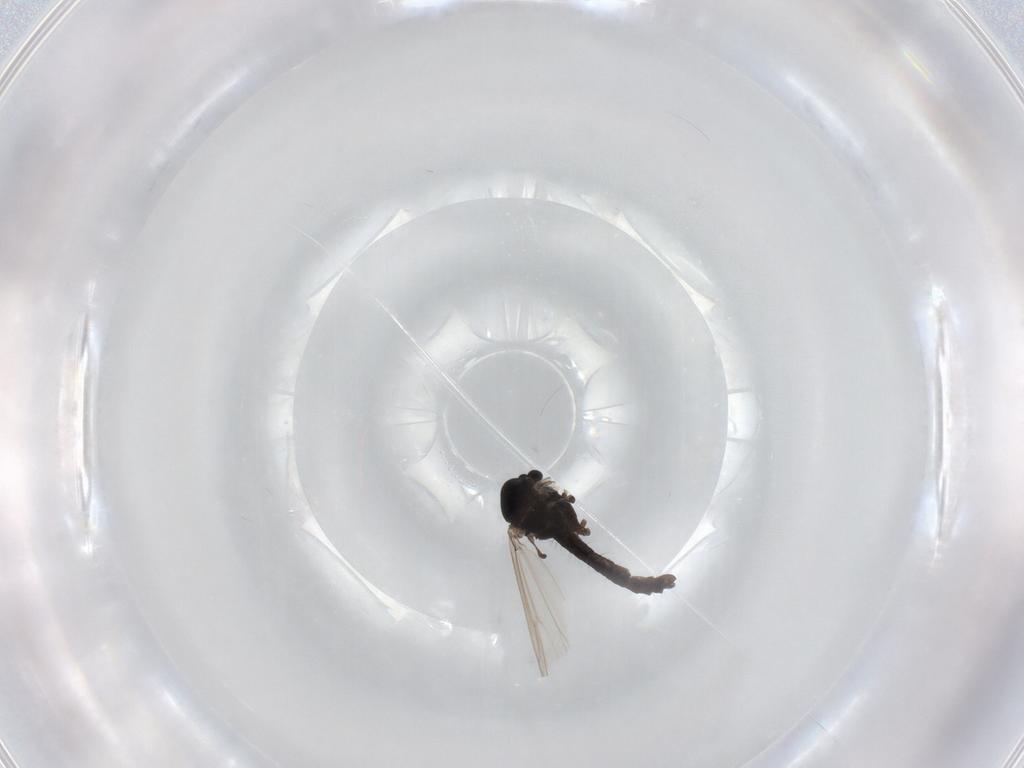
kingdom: Animalia
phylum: Arthropoda
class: Insecta
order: Diptera
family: Chironomidae
